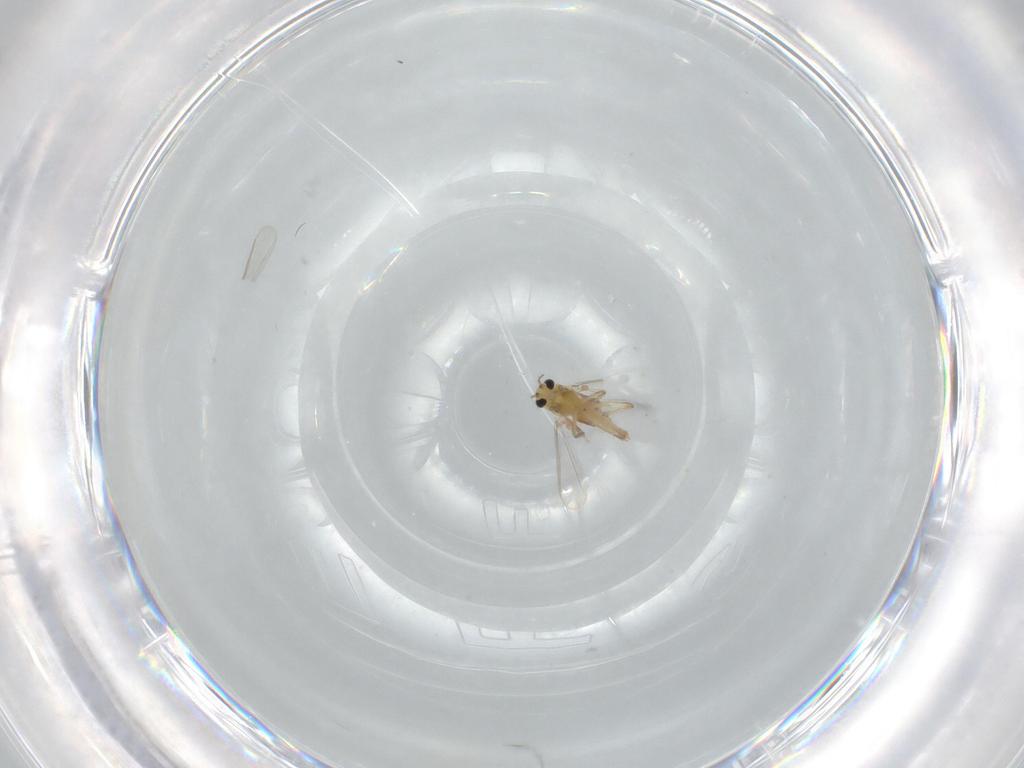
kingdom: Animalia
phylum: Arthropoda
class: Insecta
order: Diptera
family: Chironomidae
